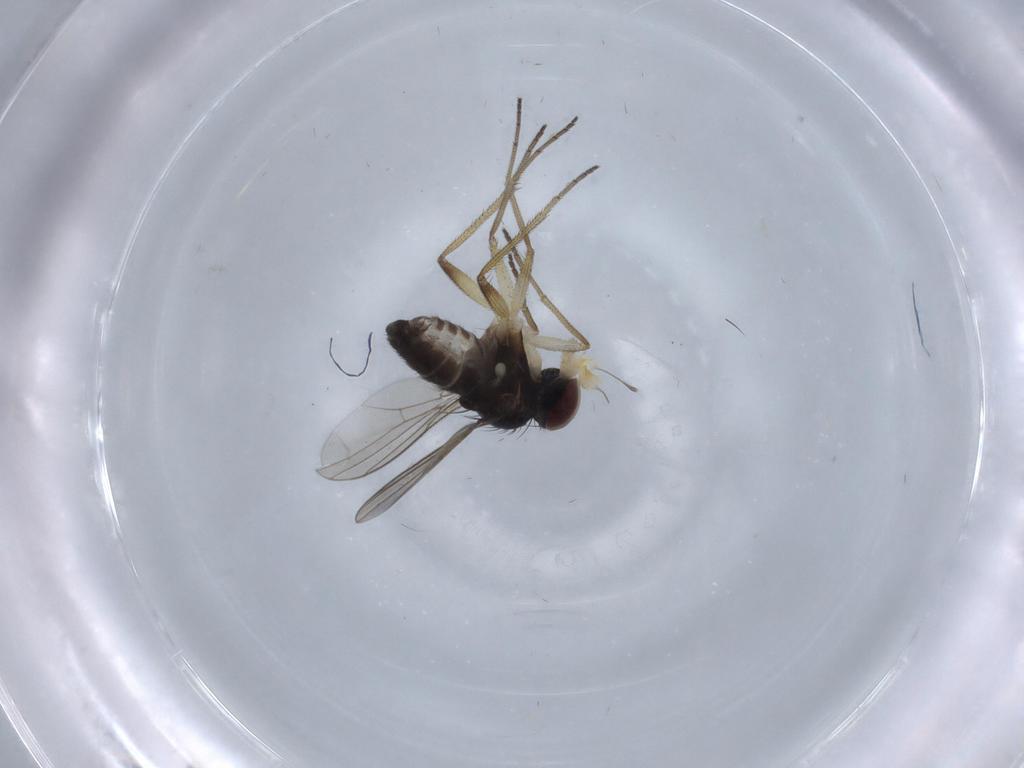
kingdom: Animalia
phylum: Arthropoda
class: Insecta
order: Diptera
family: Dolichopodidae
